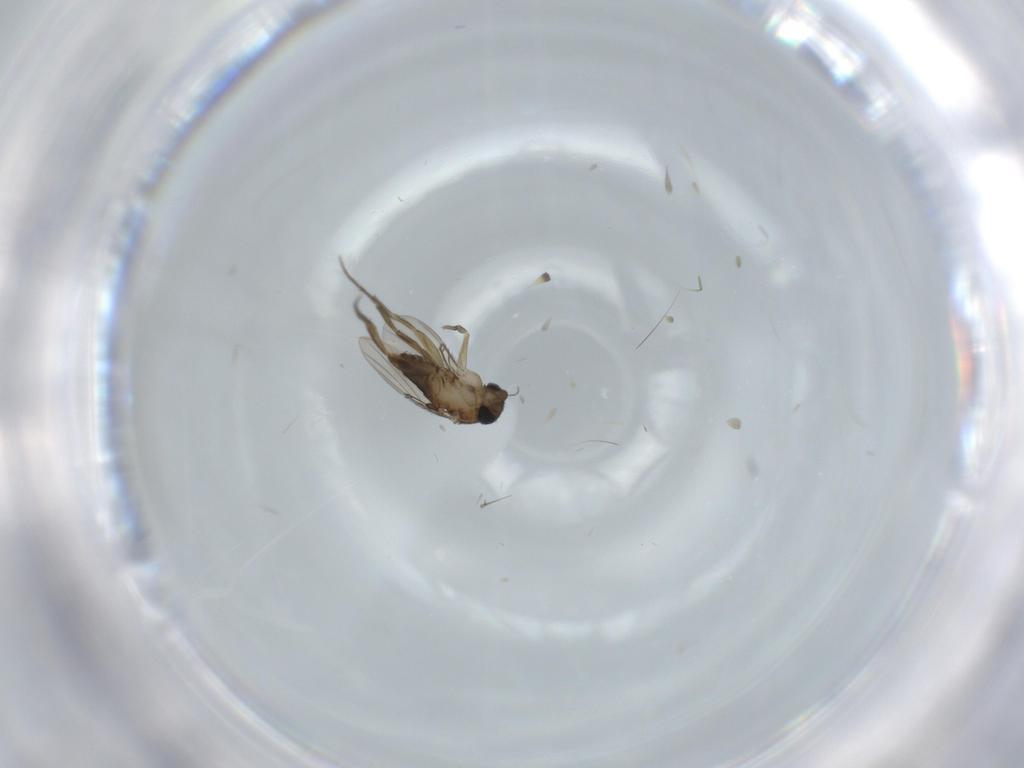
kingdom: Animalia
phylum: Arthropoda
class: Insecta
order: Diptera
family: Phoridae
